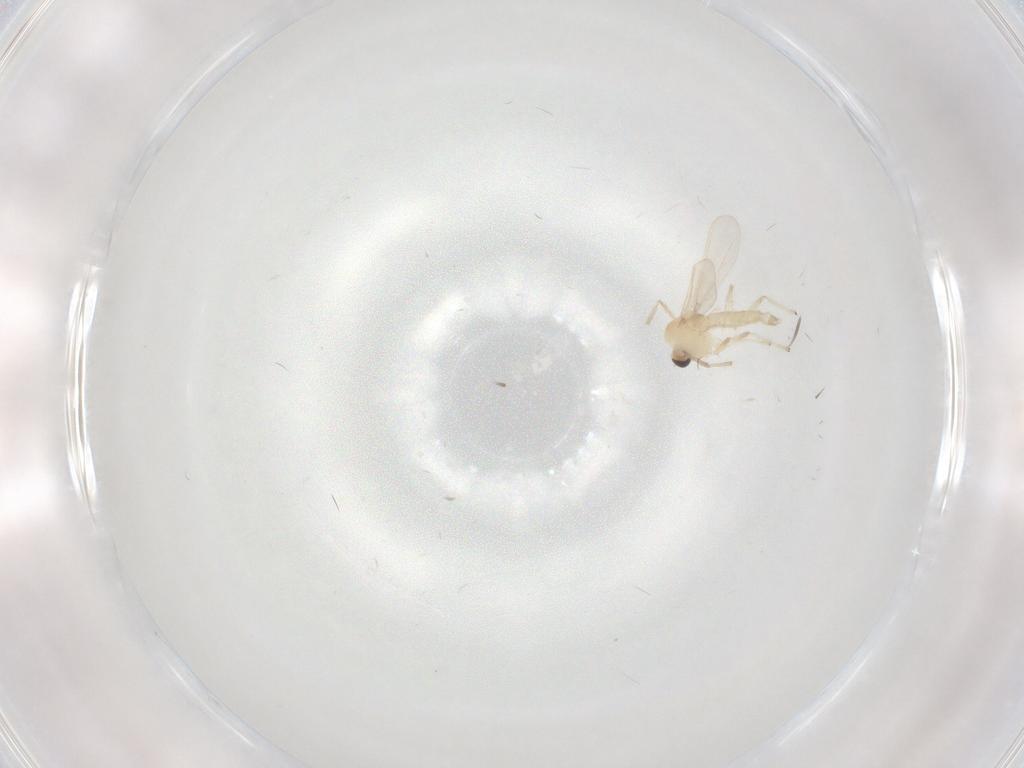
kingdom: Animalia
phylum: Arthropoda
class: Insecta
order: Diptera
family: Chironomidae
